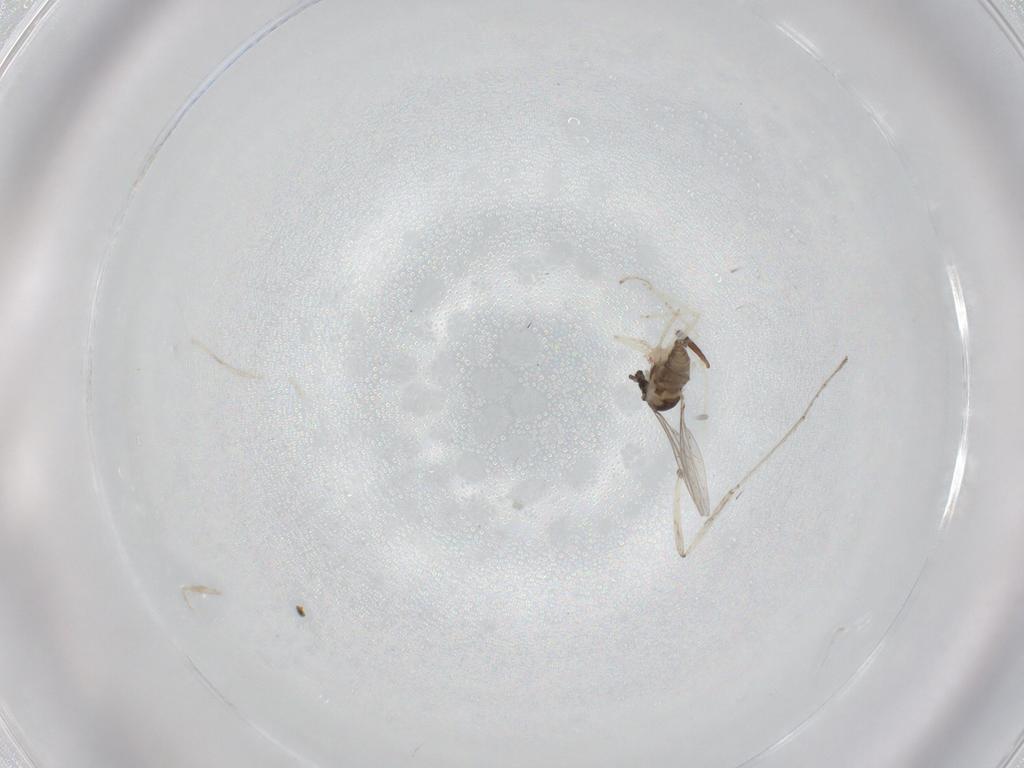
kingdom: Animalia
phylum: Arthropoda
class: Insecta
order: Diptera
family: Cecidomyiidae
